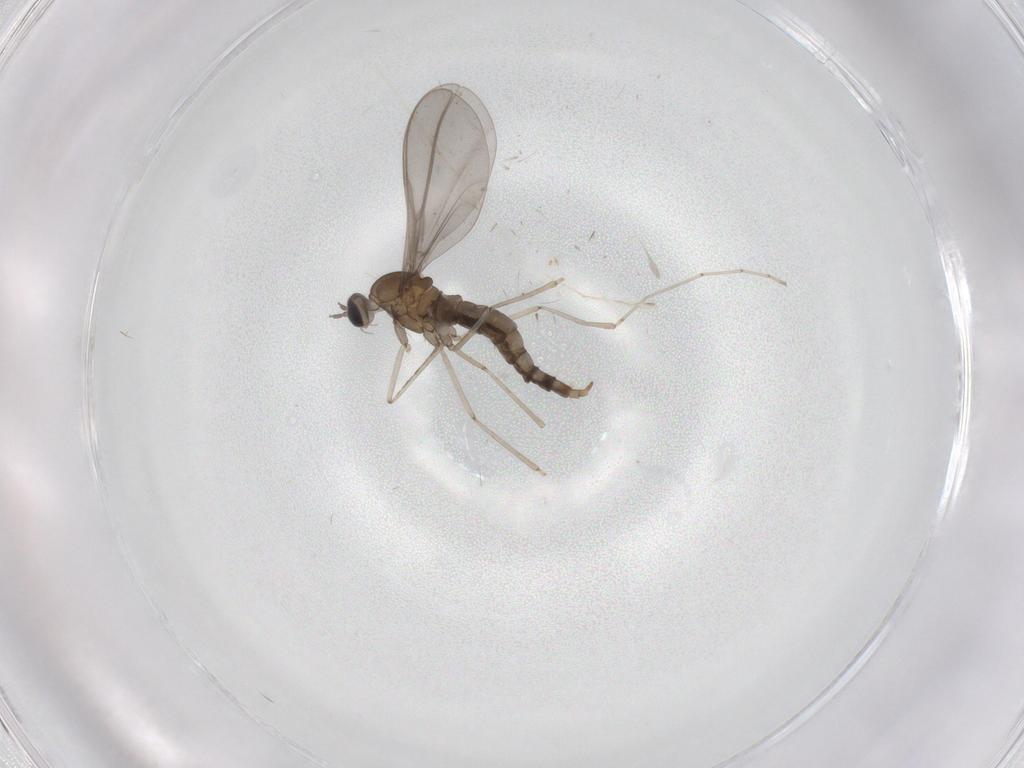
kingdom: Animalia
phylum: Arthropoda
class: Insecta
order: Diptera
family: Cecidomyiidae
